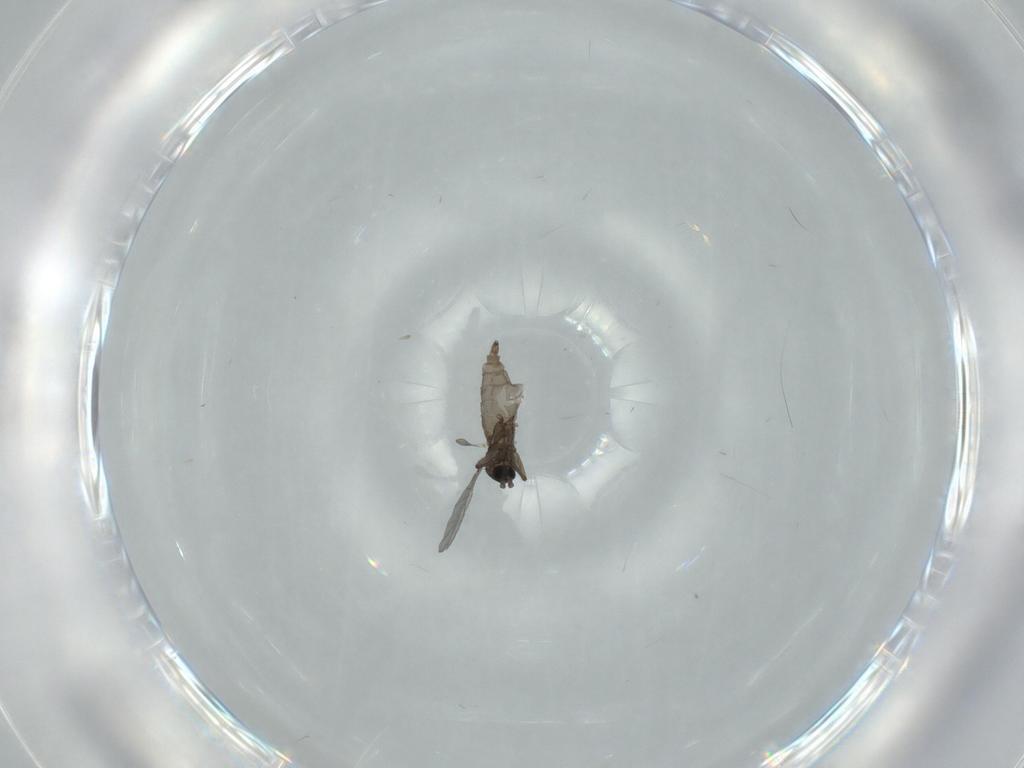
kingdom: Animalia
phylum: Arthropoda
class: Insecta
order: Diptera
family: Sciaridae
